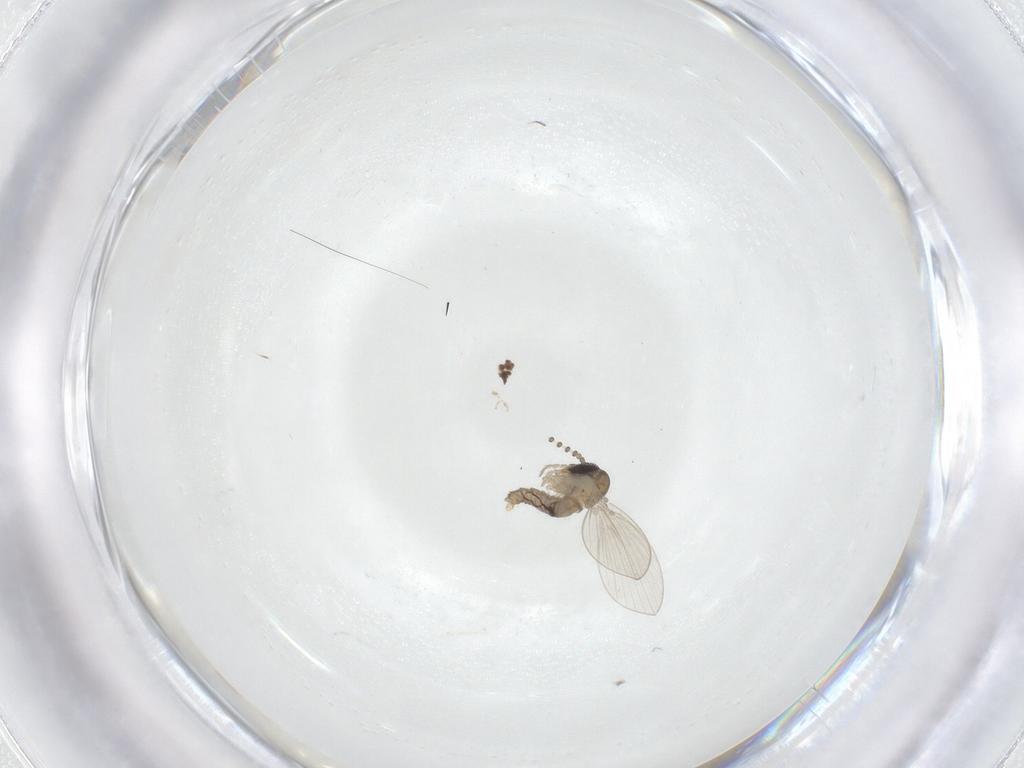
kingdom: Animalia
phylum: Arthropoda
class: Insecta
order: Diptera
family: Psychodidae
